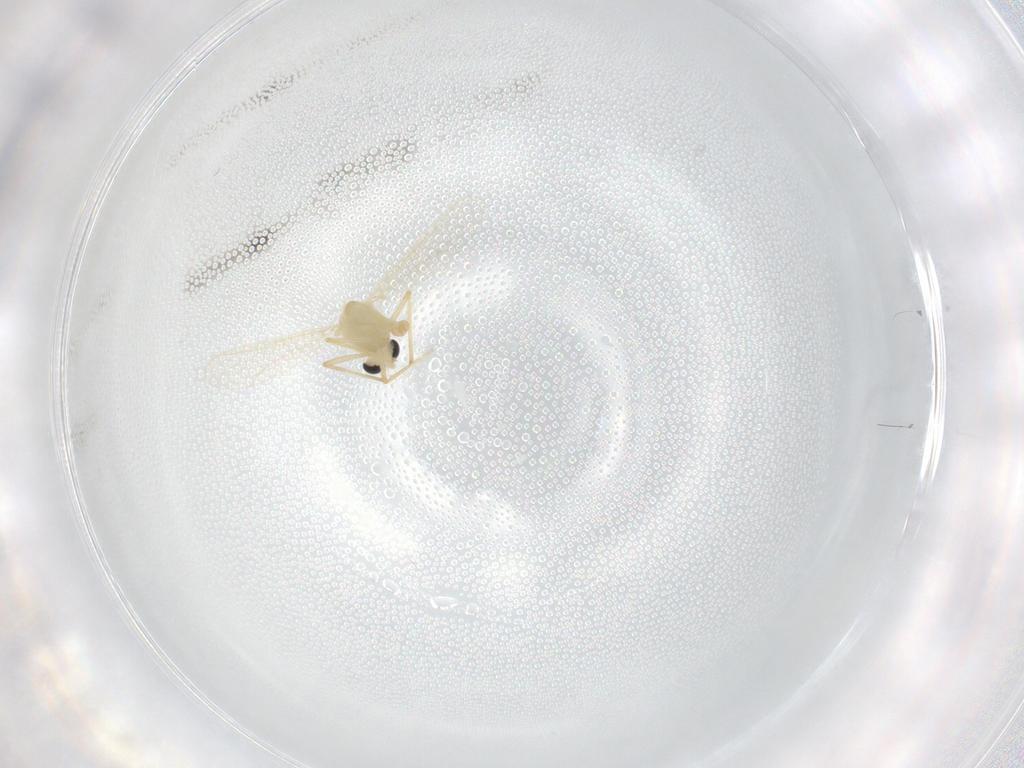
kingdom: Animalia
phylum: Arthropoda
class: Insecta
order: Diptera
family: Chironomidae
